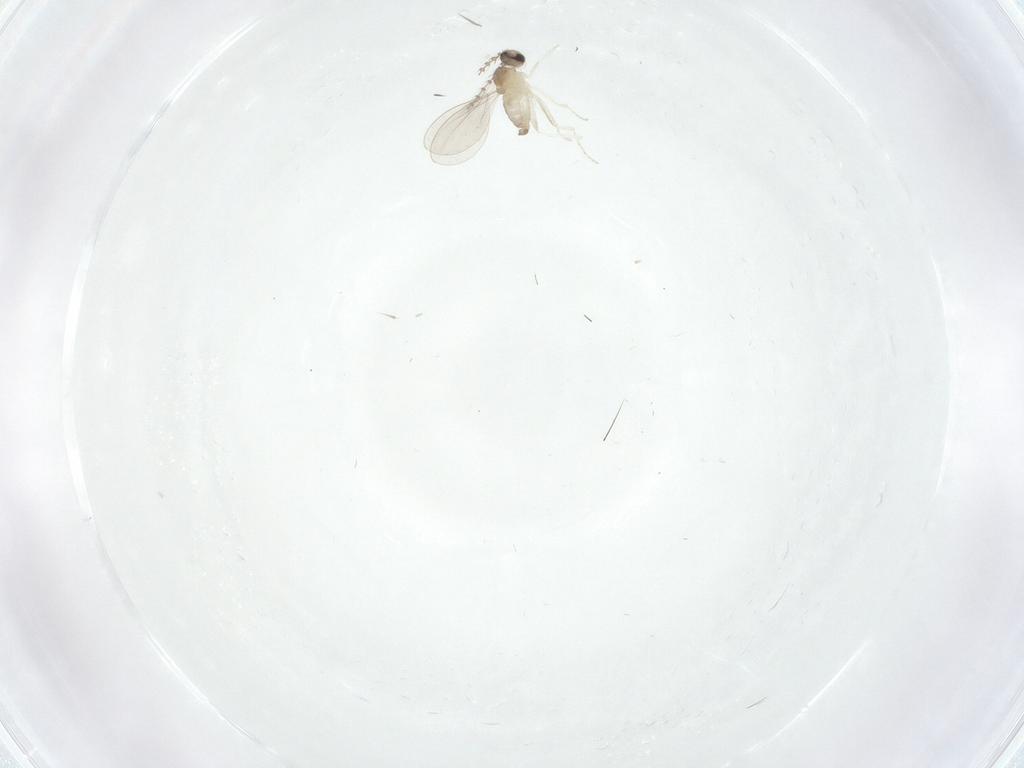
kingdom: Animalia
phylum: Arthropoda
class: Insecta
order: Diptera
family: Cecidomyiidae
